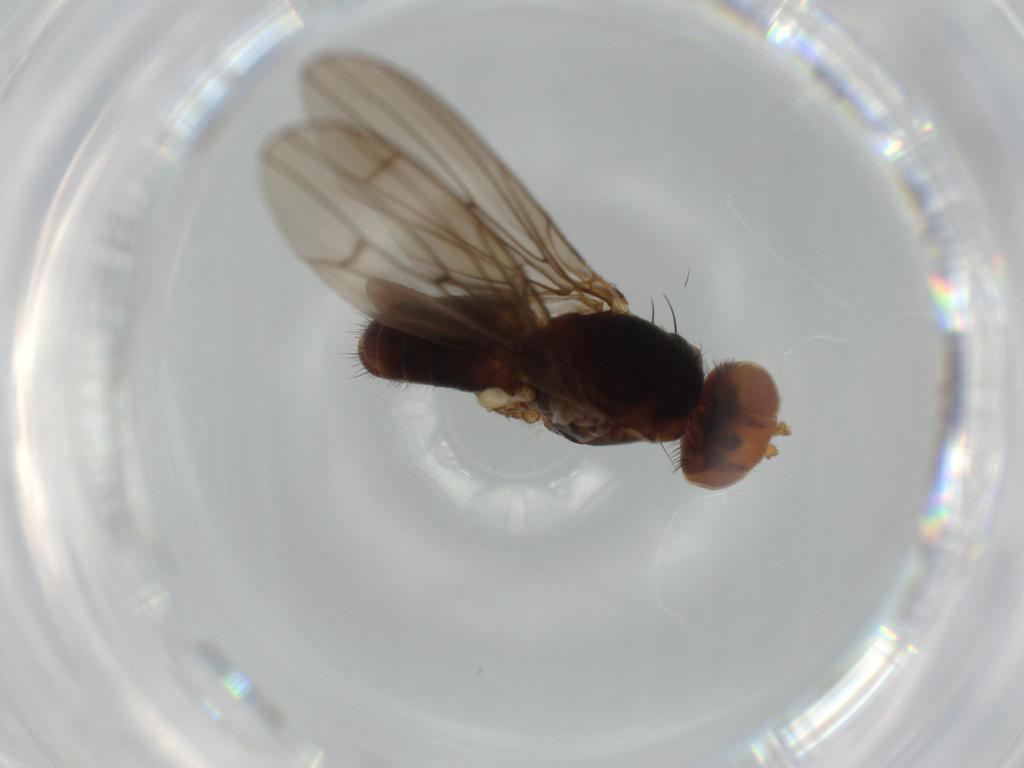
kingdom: Animalia
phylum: Arthropoda
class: Insecta
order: Diptera
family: Sciomyzidae
